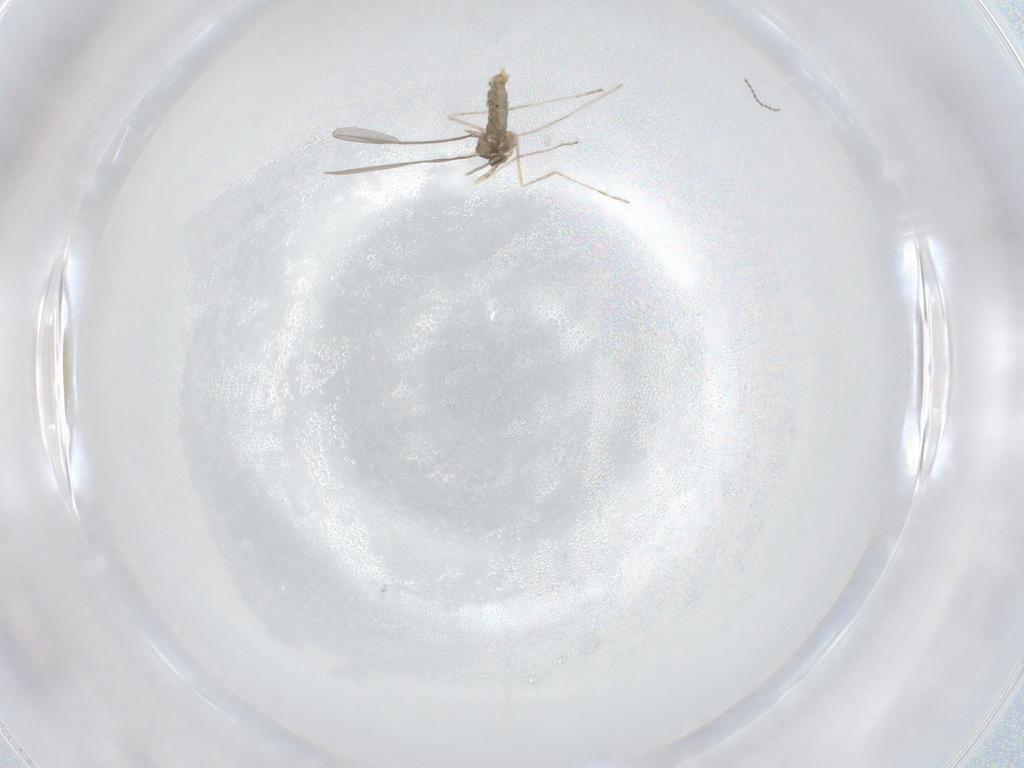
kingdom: Animalia
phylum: Arthropoda
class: Insecta
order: Diptera
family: Cecidomyiidae
